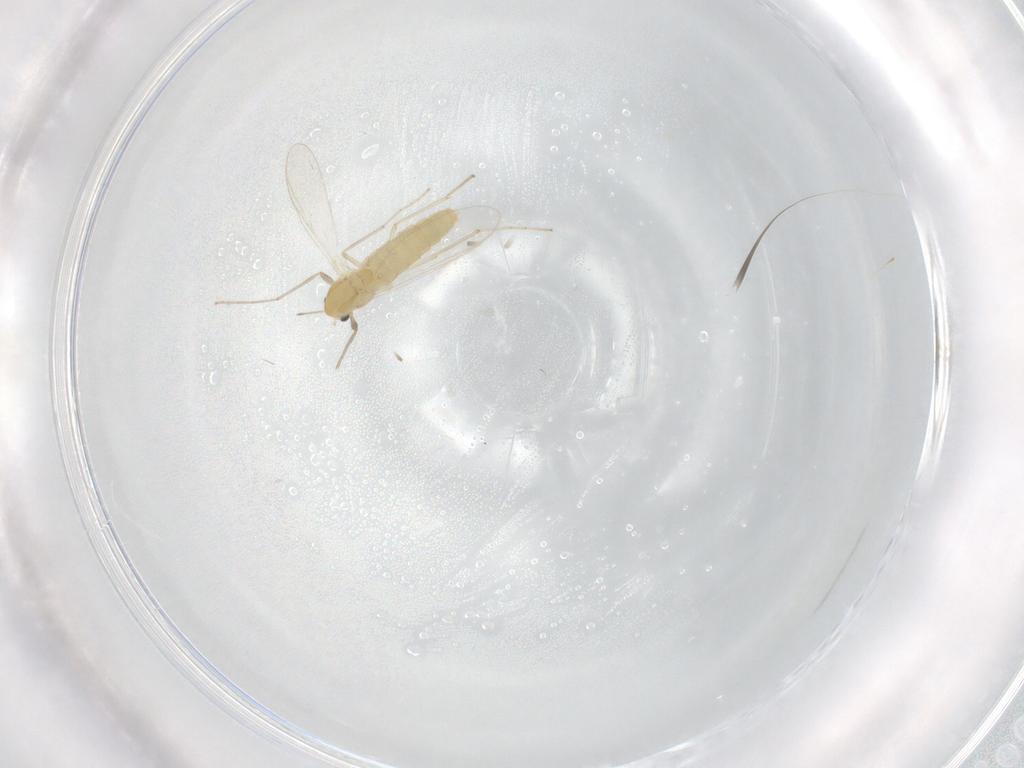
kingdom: Animalia
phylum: Arthropoda
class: Insecta
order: Diptera
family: Chironomidae
